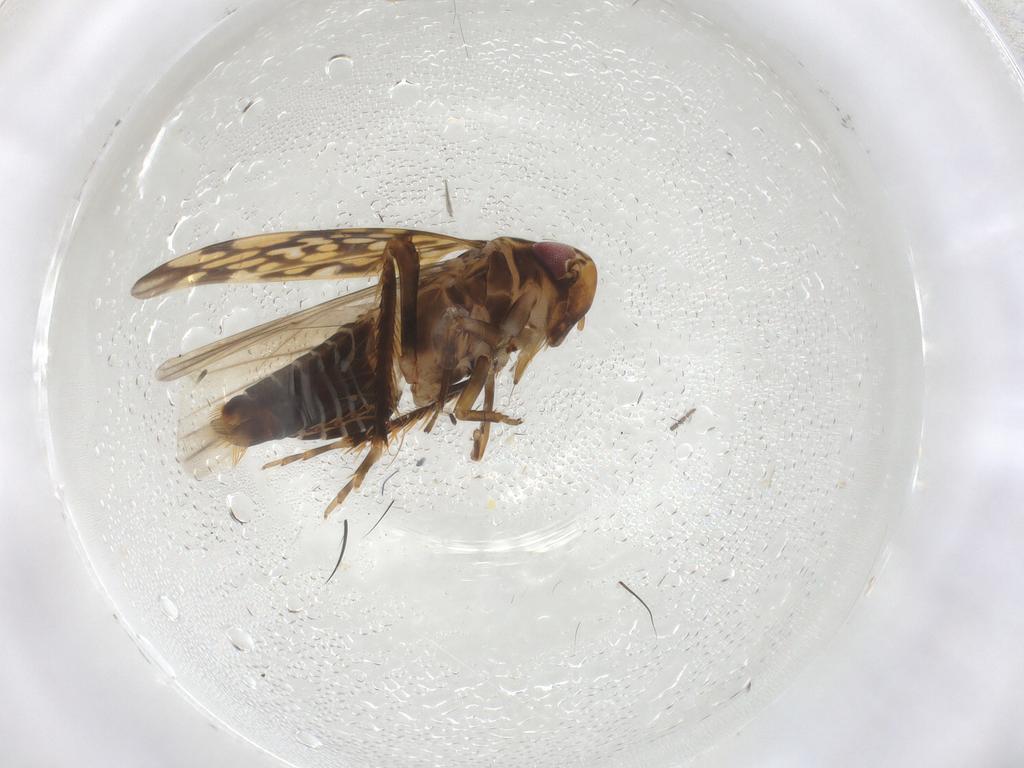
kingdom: Animalia
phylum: Arthropoda
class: Insecta
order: Hemiptera
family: Cicadellidae
